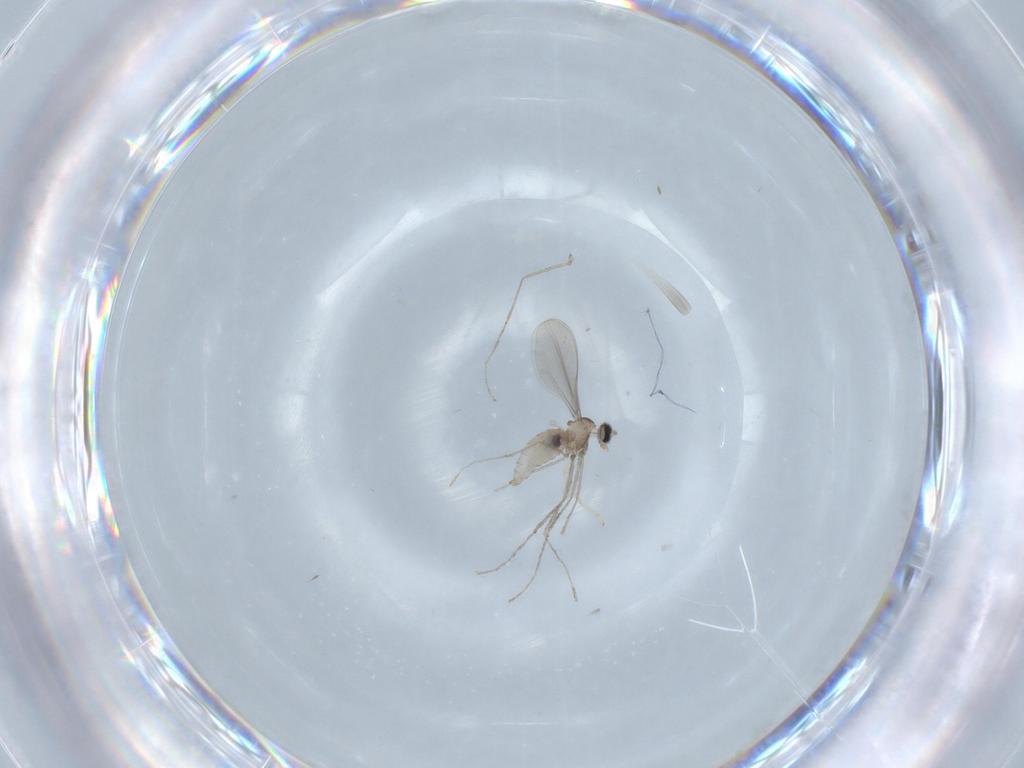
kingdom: Animalia
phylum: Arthropoda
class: Insecta
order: Diptera
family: Cecidomyiidae
